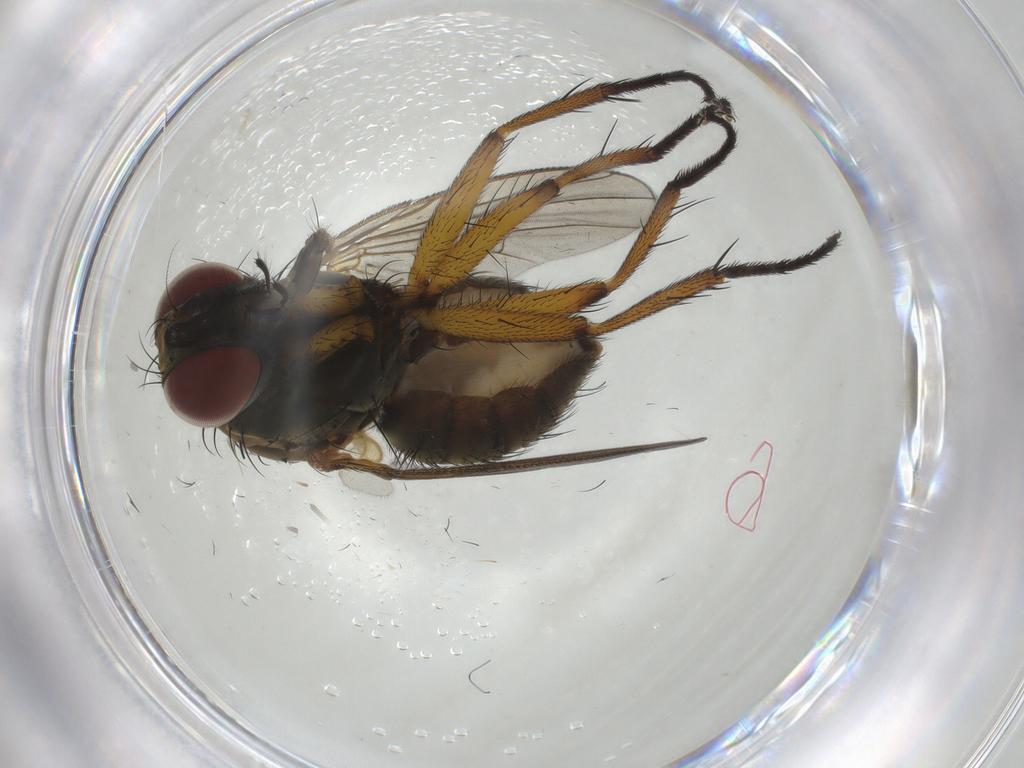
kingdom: Animalia
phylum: Arthropoda
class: Insecta
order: Diptera
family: Muscidae
